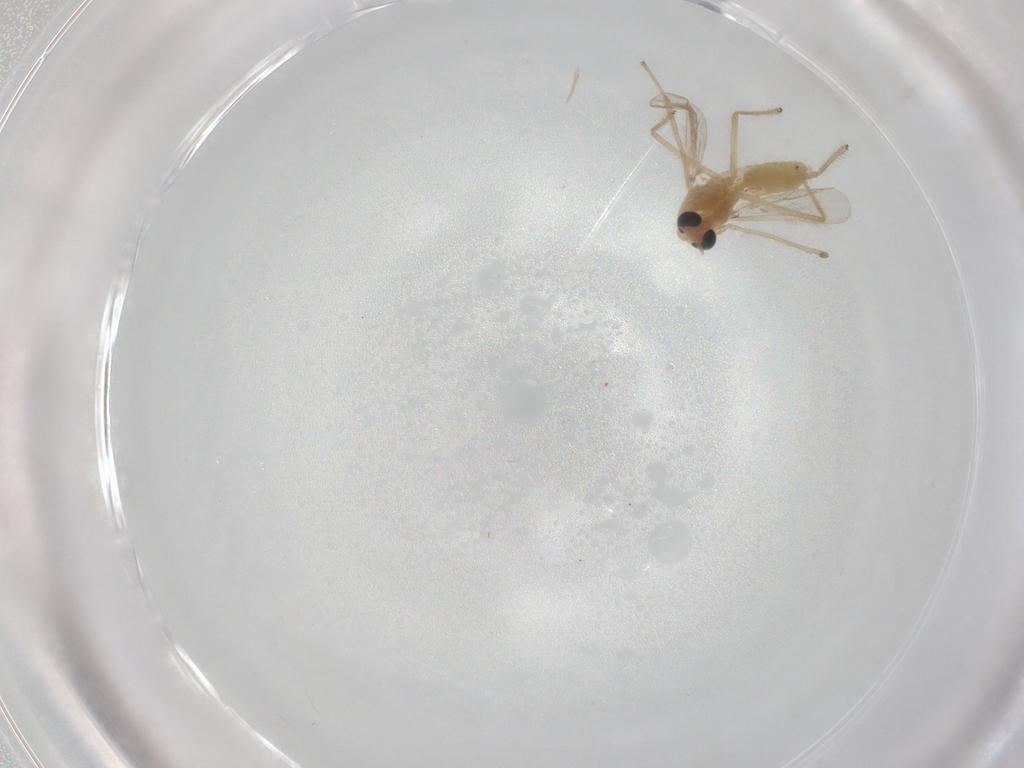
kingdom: Animalia
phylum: Arthropoda
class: Insecta
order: Diptera
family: Chironomidae
